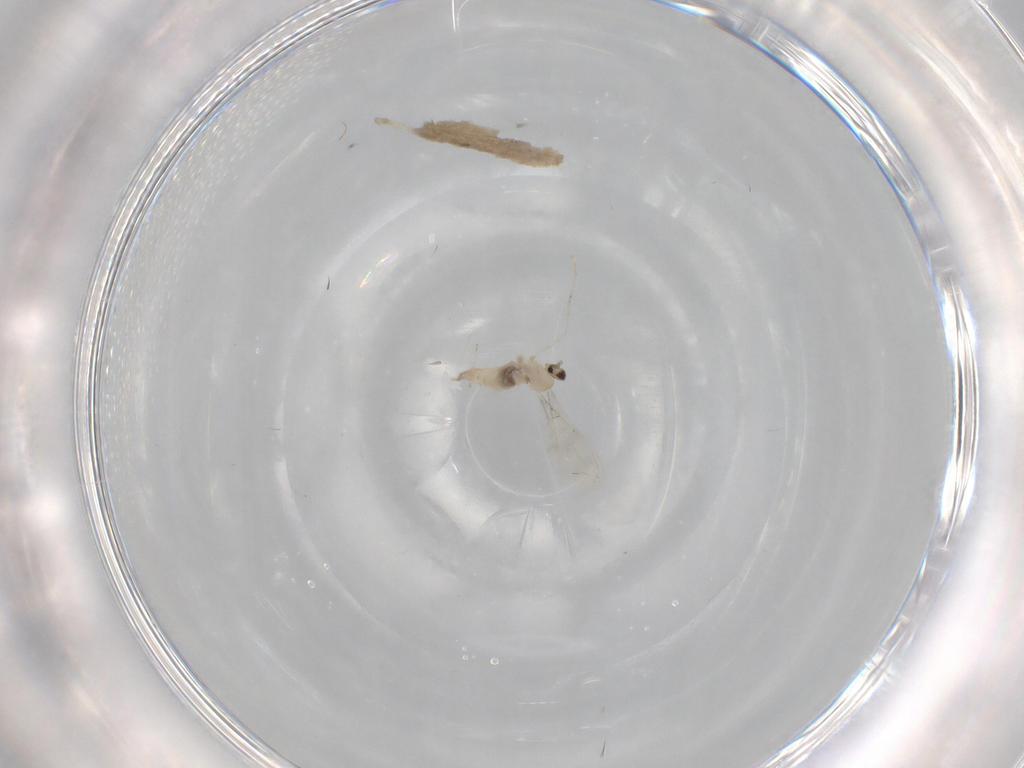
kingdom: Animalia
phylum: Arthropoda
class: Insecta
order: Diptera
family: Cecidomyiidae
